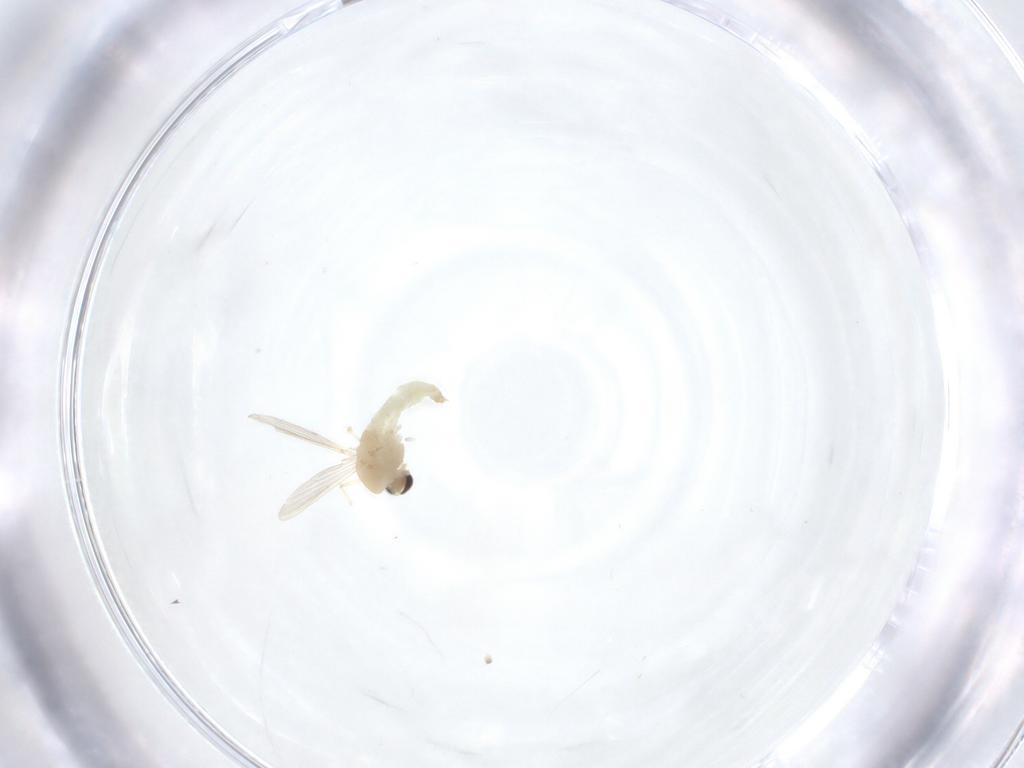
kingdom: Animalia
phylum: Arthropoda
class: Insecta
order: Diptera
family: Chironomidae
